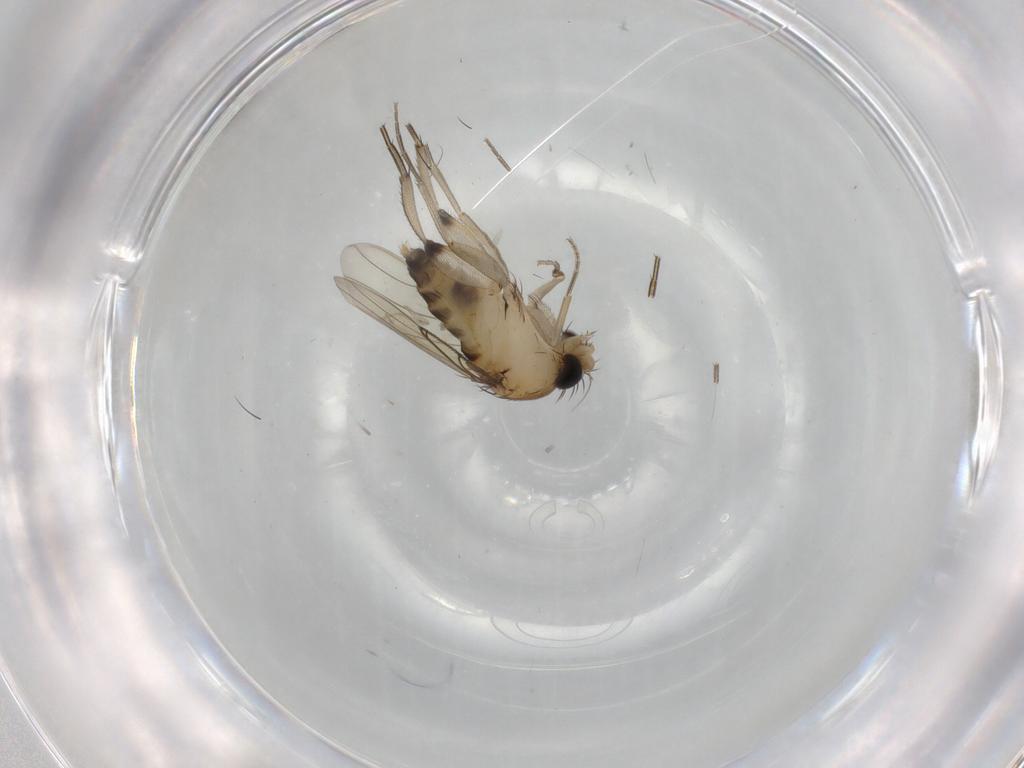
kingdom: Animalia
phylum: Arthropoda
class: Insecta
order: Diptera
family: Phoridae
